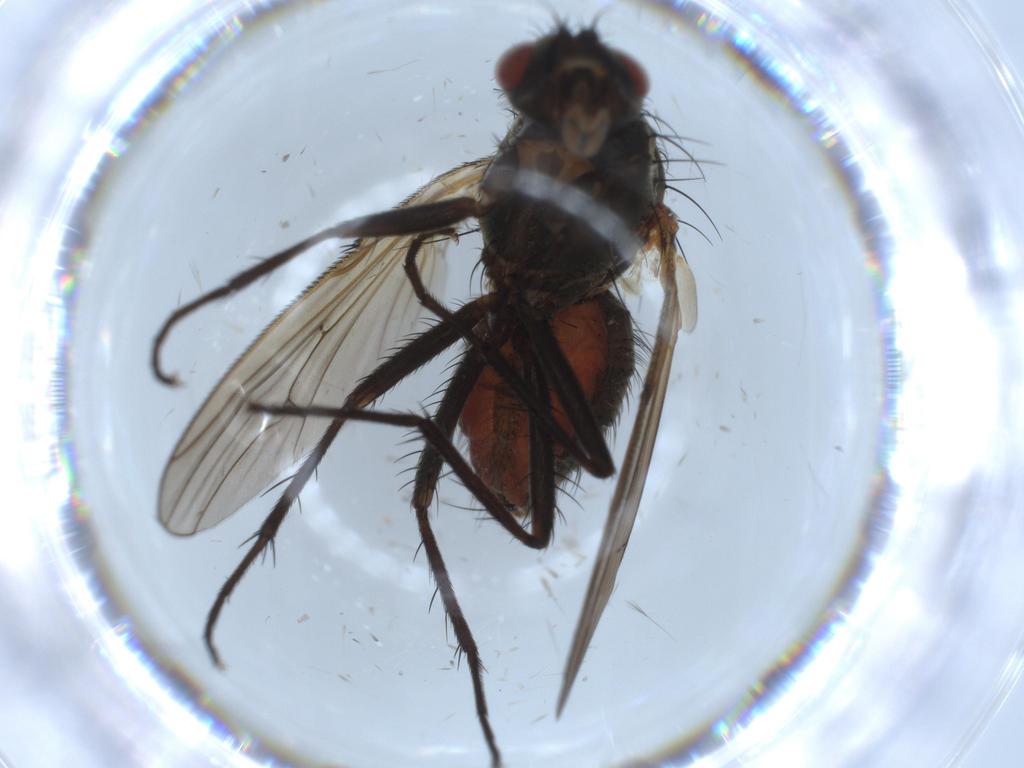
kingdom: Animalia
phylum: Arthropoda
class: Insecta
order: Diptera
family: Anthomyiidae
